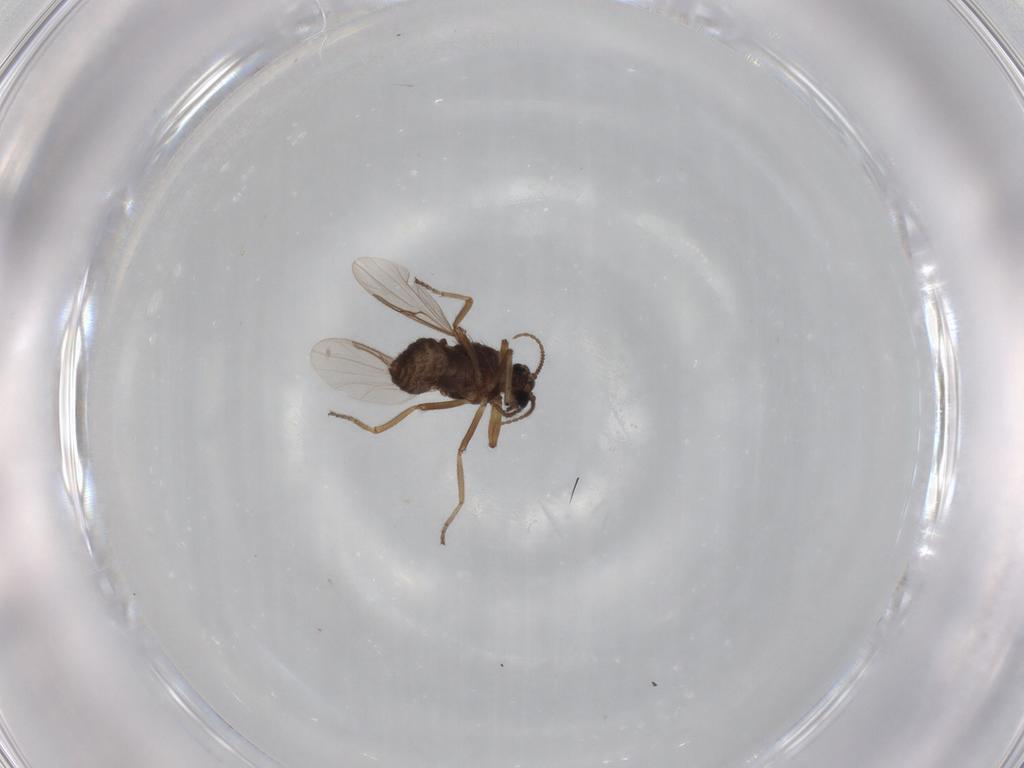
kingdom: Animalia
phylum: Arthropoda
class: Insecta
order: Diptera
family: Ceratopogonidae
